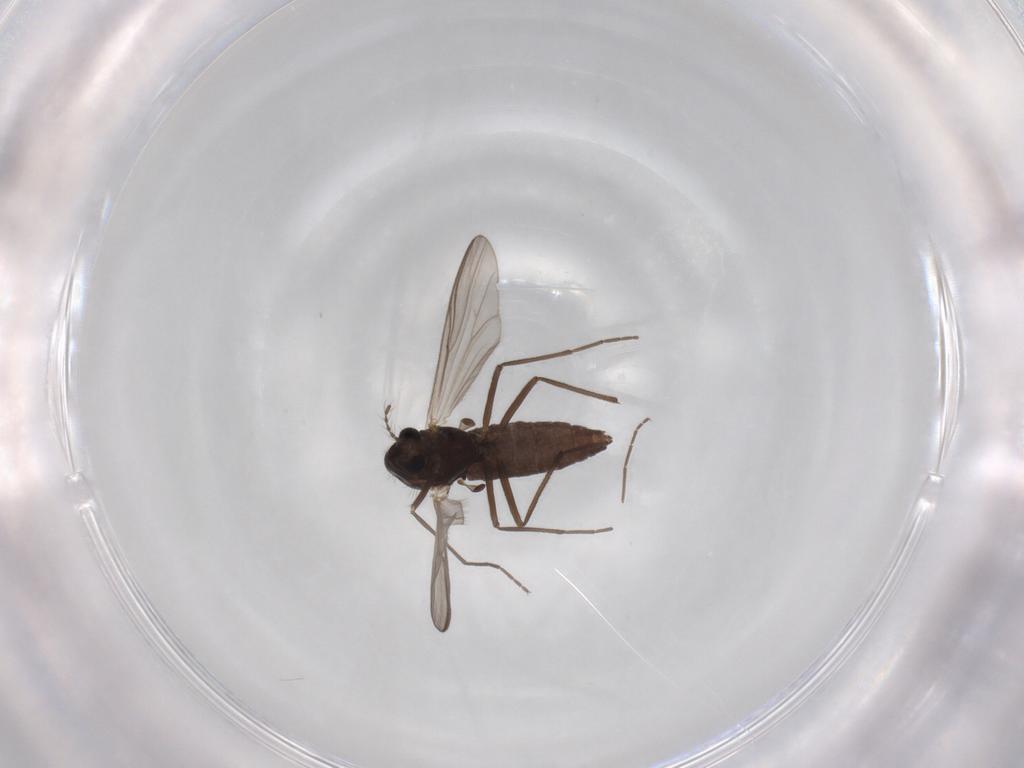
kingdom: Animalia
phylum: Arthropoda
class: Insecta
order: Diptera
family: Chironomidae
